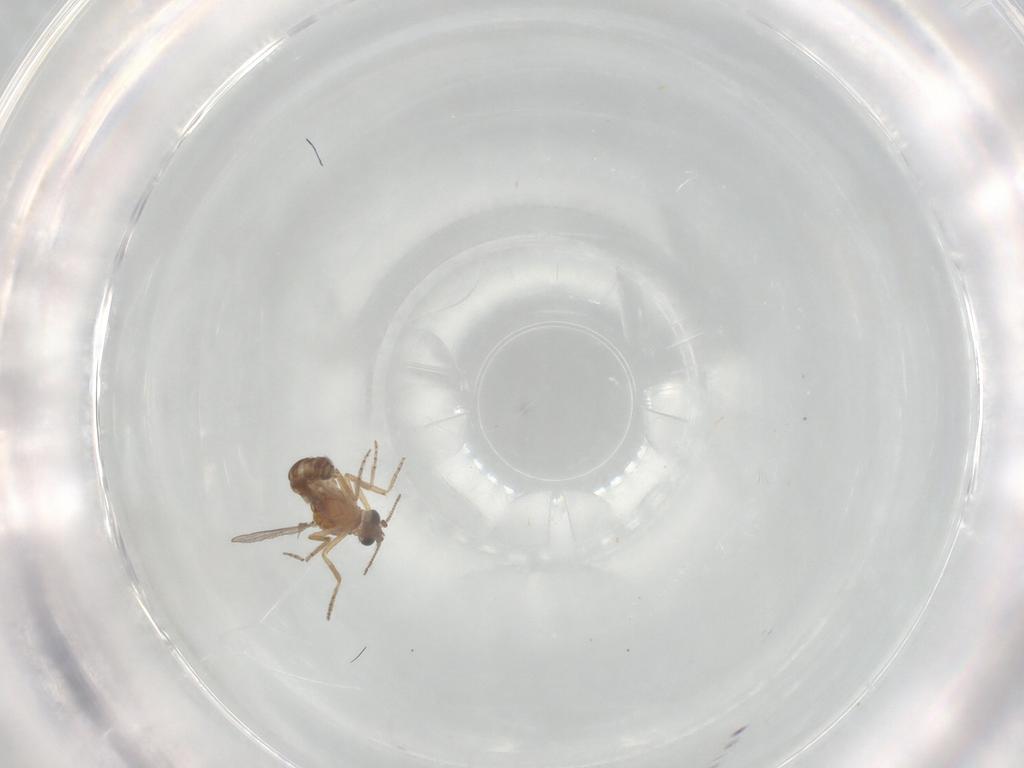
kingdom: Animalia
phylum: Arthropoda
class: Insecta
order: Diptera
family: Ceratopogonidae
